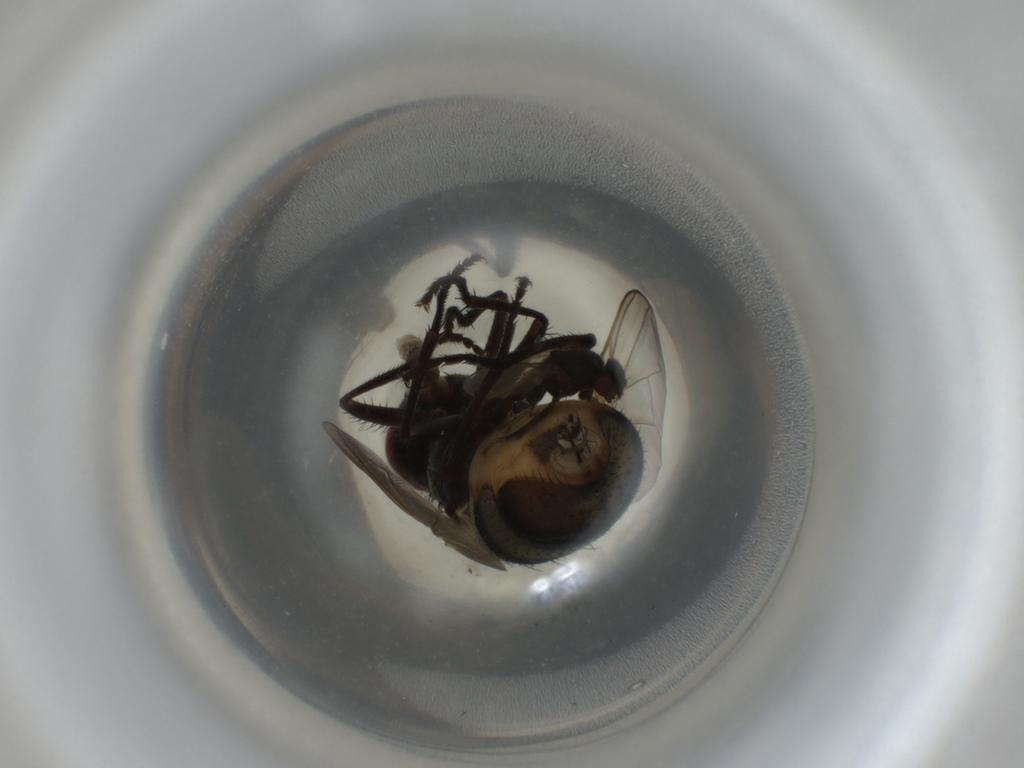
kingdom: Animalia
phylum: Arthropoda
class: Insecta
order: Diptera
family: Muscidae
